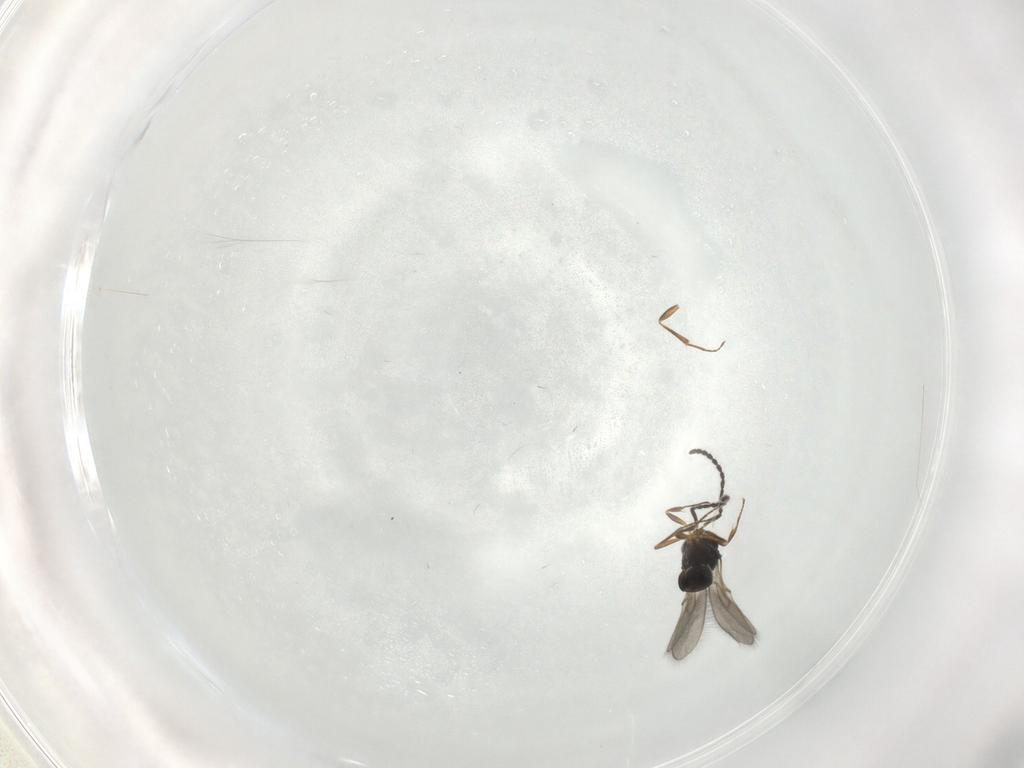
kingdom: Animalia
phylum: Arthropoda
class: Insecta
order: Hymenoptera
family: Scelionidae
